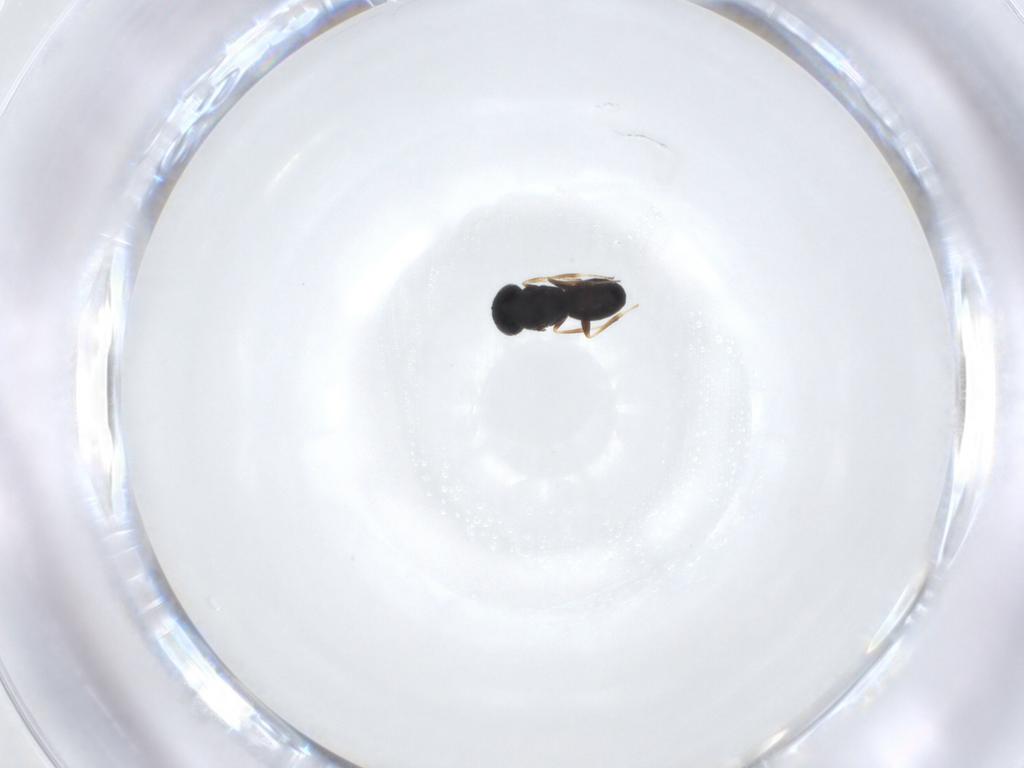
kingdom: Animalia
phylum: Arthropoda
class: Insecta
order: Hymenoptera
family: Scelionidae
